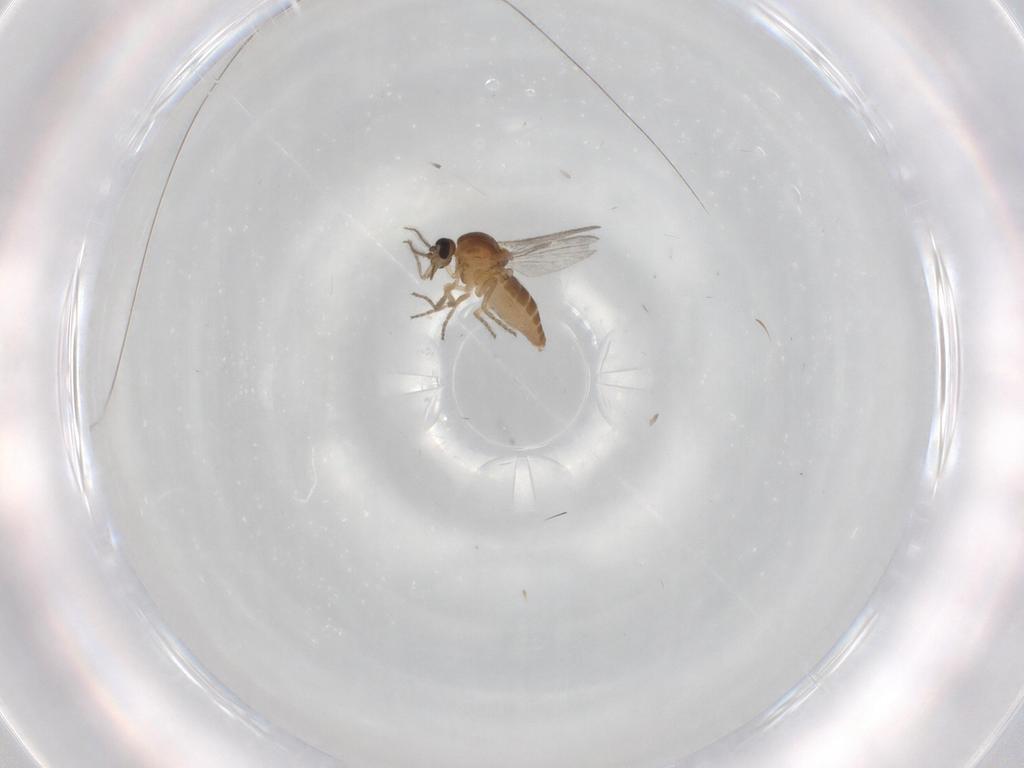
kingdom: Animalia
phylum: Arthropoda
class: Insecta
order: Diptera
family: Ceratopogonidae
